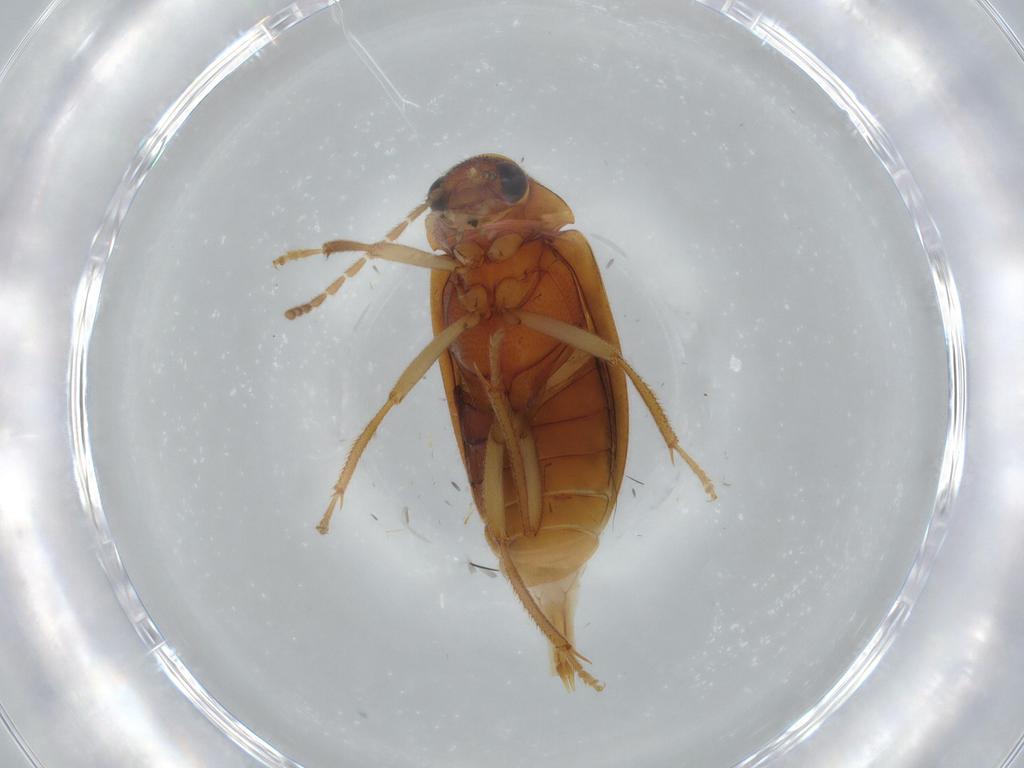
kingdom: Animalia
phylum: Arthropoda
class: Insecta
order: Coleoptera
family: Ptilodactylidae
